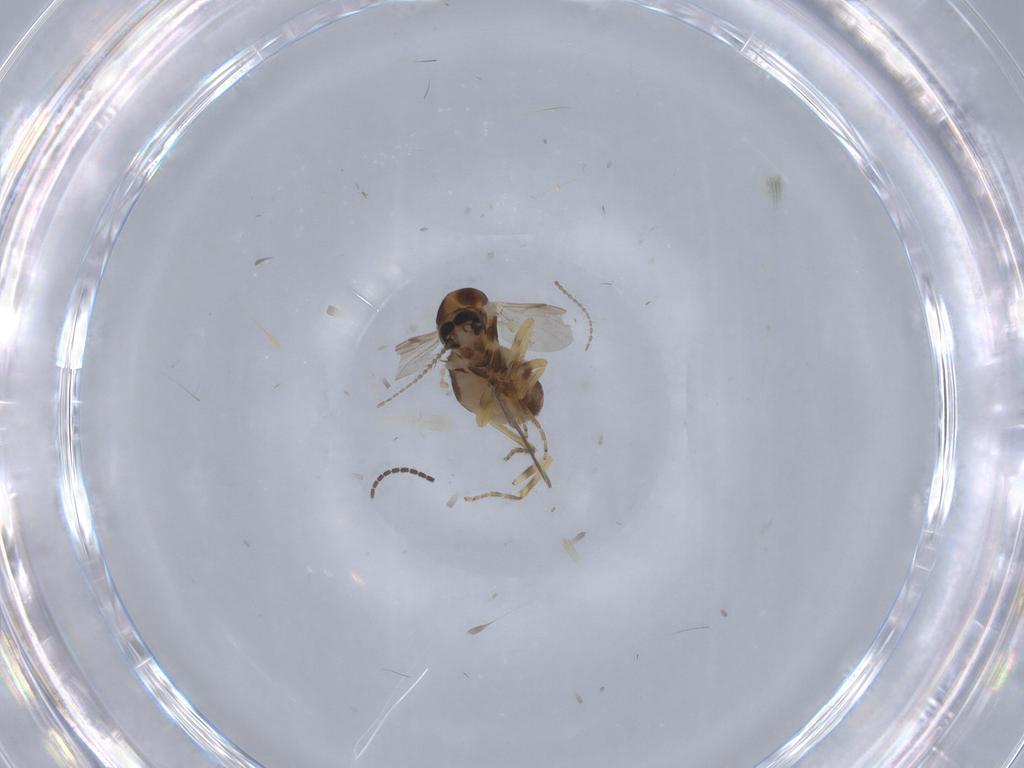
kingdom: Animalia
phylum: Arthropoda
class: Insecta
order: Diptera
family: Ceratopogonidae
